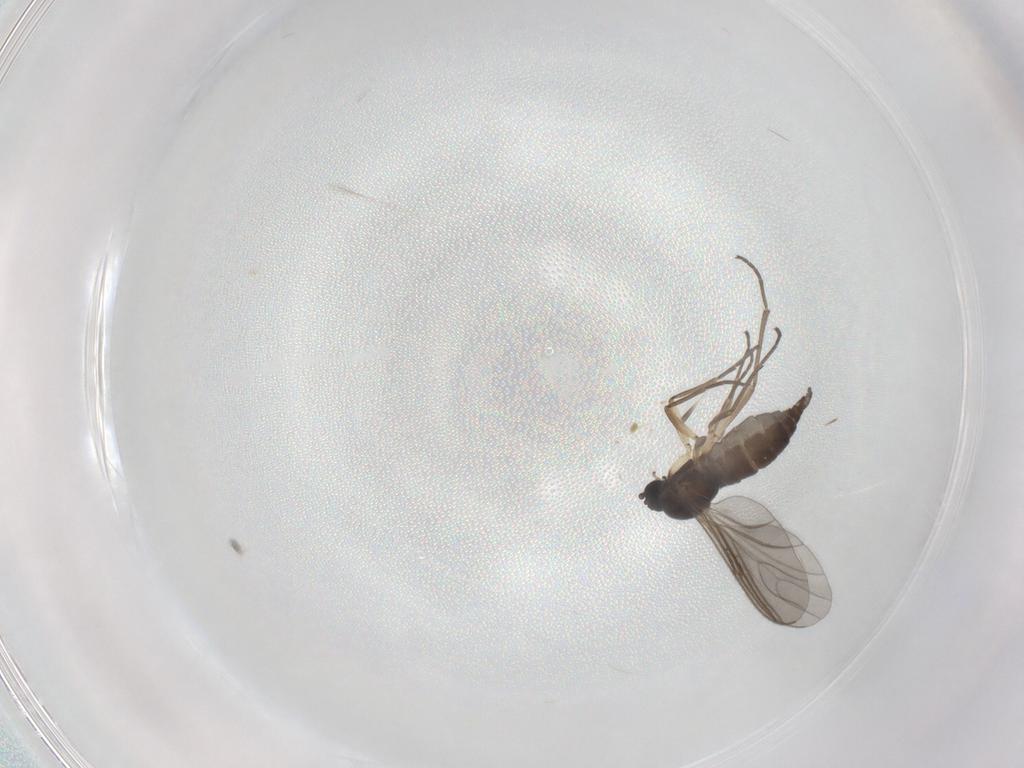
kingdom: Animalia
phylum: Arthropoda
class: Insecta
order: Diptera
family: Sciaridae
